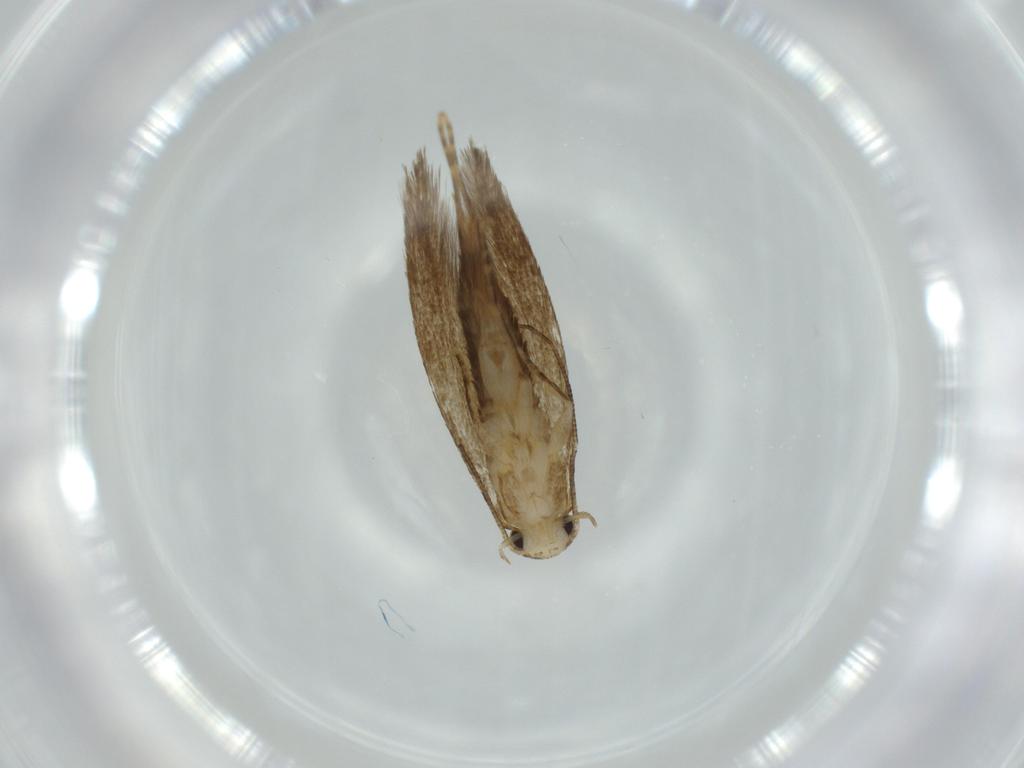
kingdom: Animalia
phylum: Arthropoda
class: Insecta
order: Lepidoptera
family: Tineidae
